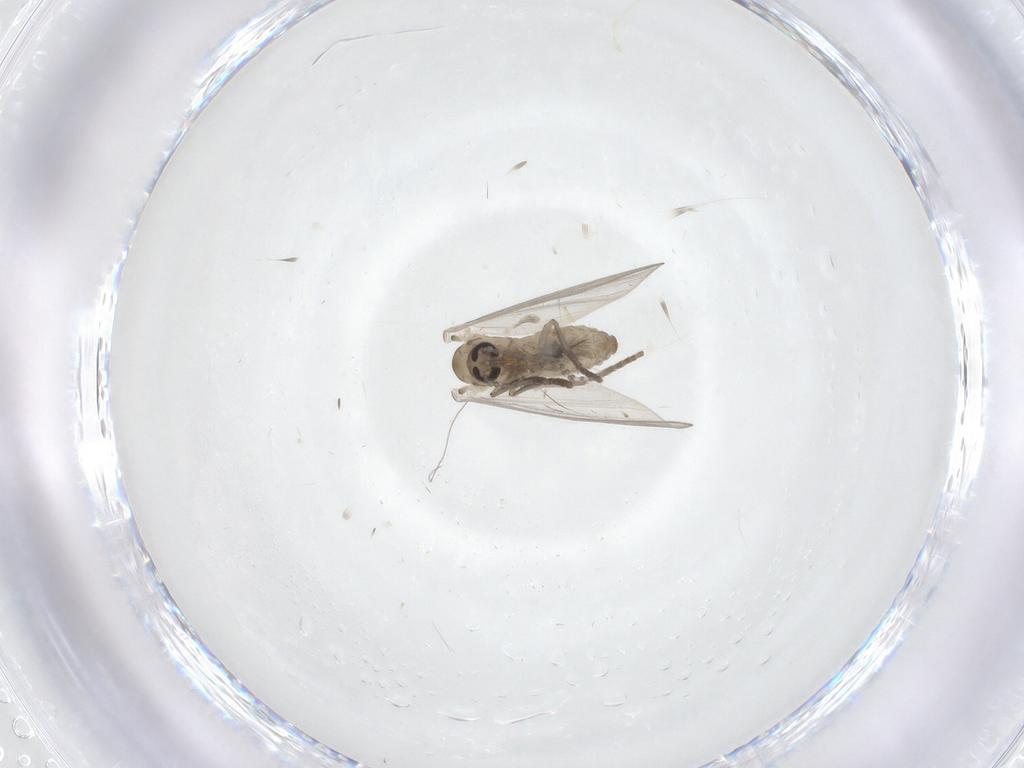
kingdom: Animalia
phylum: Arthropoda
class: Insecta
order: Diptera
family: Psychodidae
